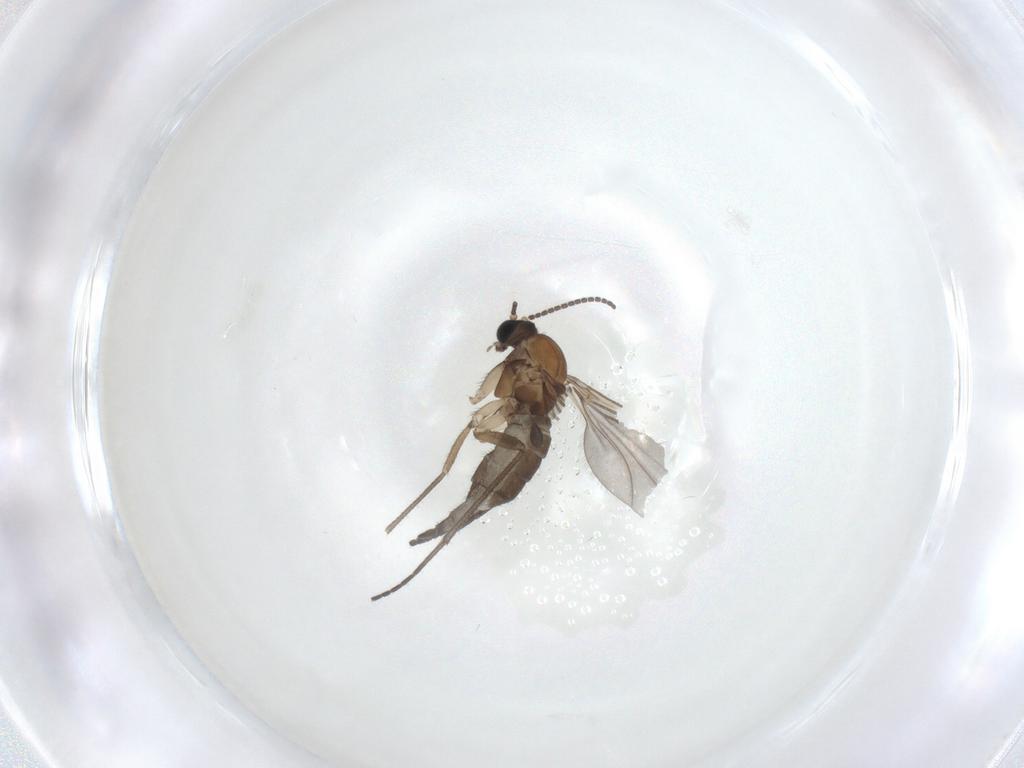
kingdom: Animalia
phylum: Arthropoda
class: Insecta
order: Diptera
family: Sciaridae
